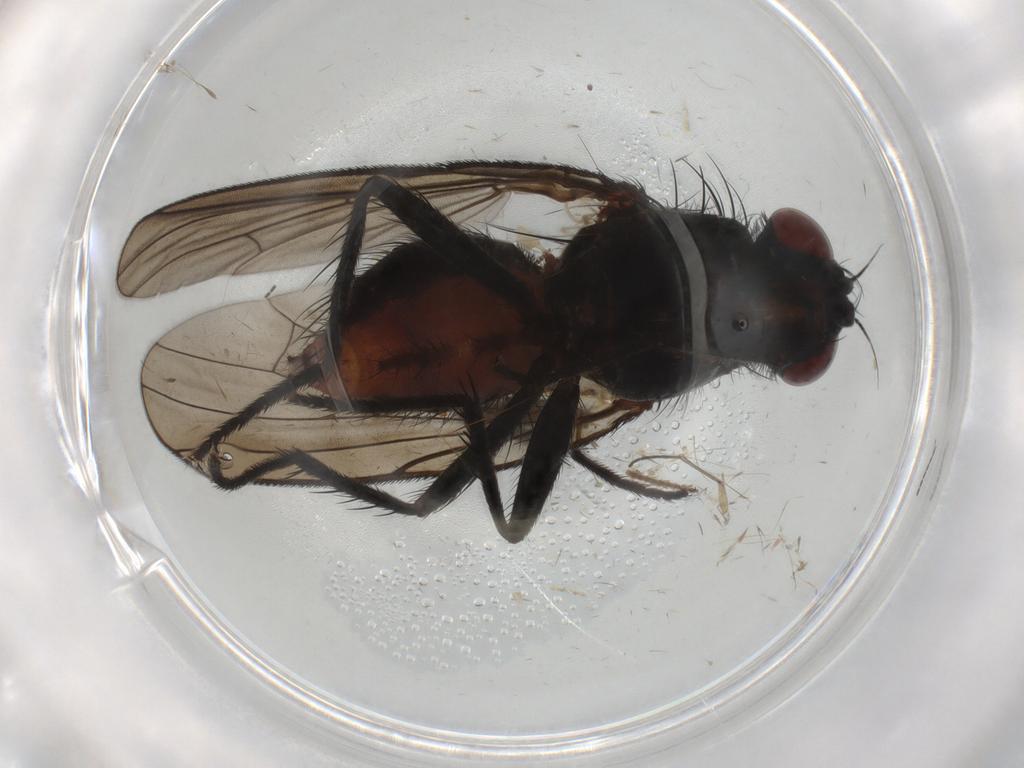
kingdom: Animalia
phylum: Arthropoda
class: Insecta
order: Diptera
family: Anthomyiidae
